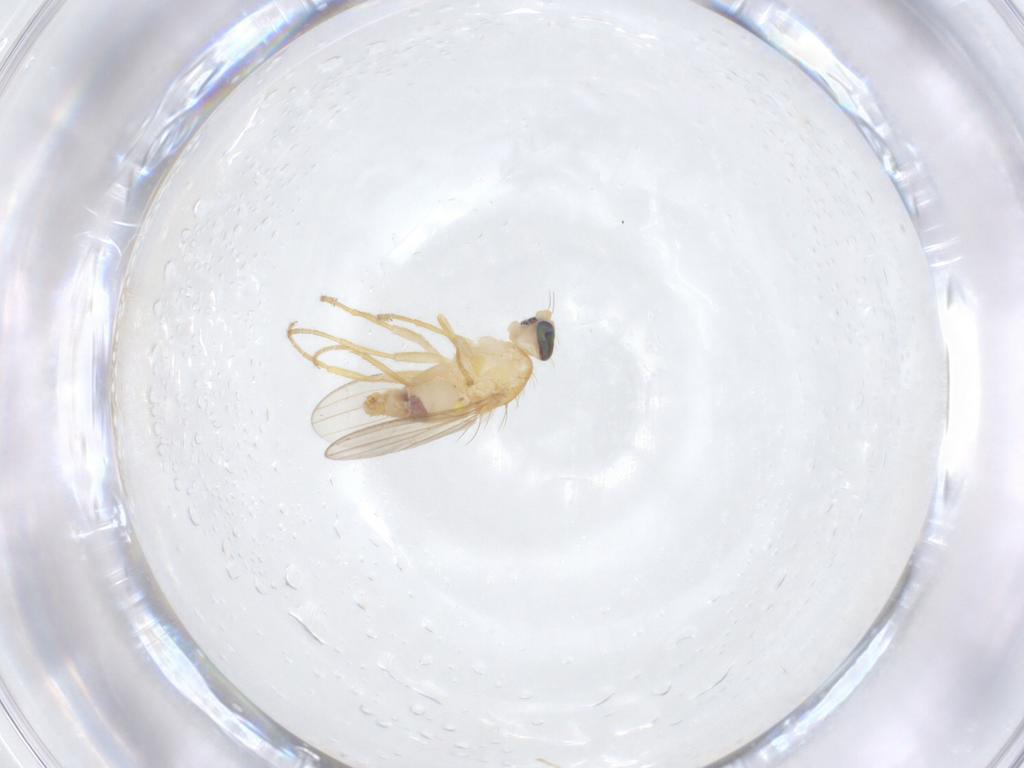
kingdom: Animalia
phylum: Arthropoda
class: Insecta
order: Diptera
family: Chyromyidae
